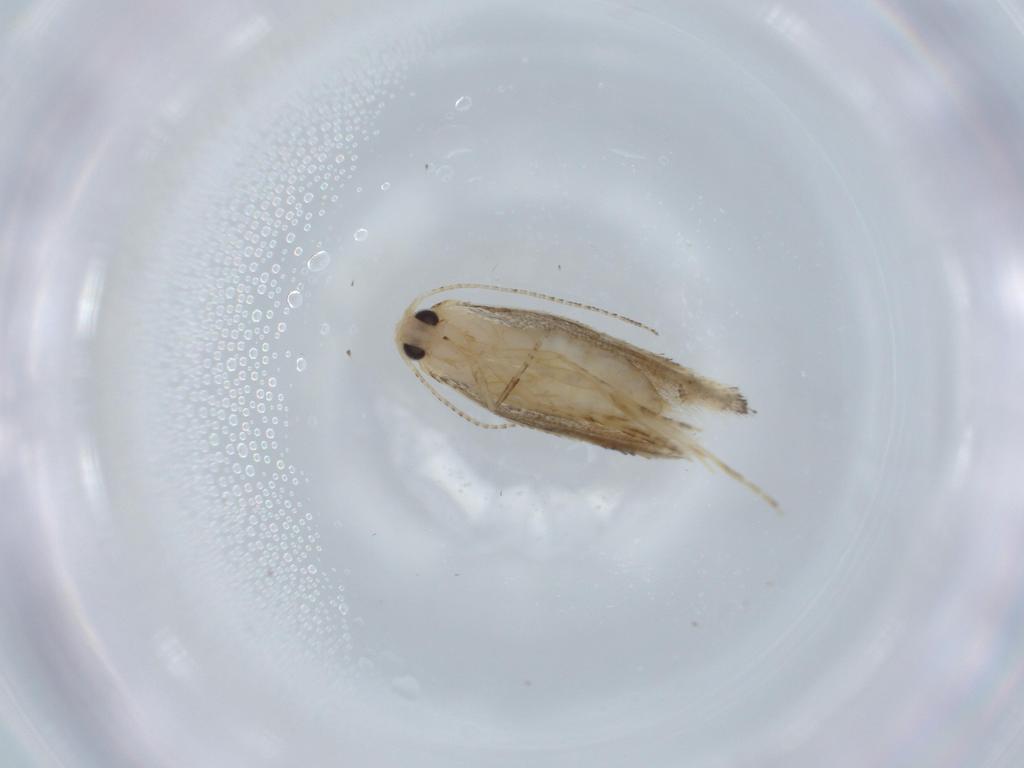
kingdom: Animalia
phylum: Arthropoda
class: Insecta
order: Lepidoptera
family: Bucculatricidae
